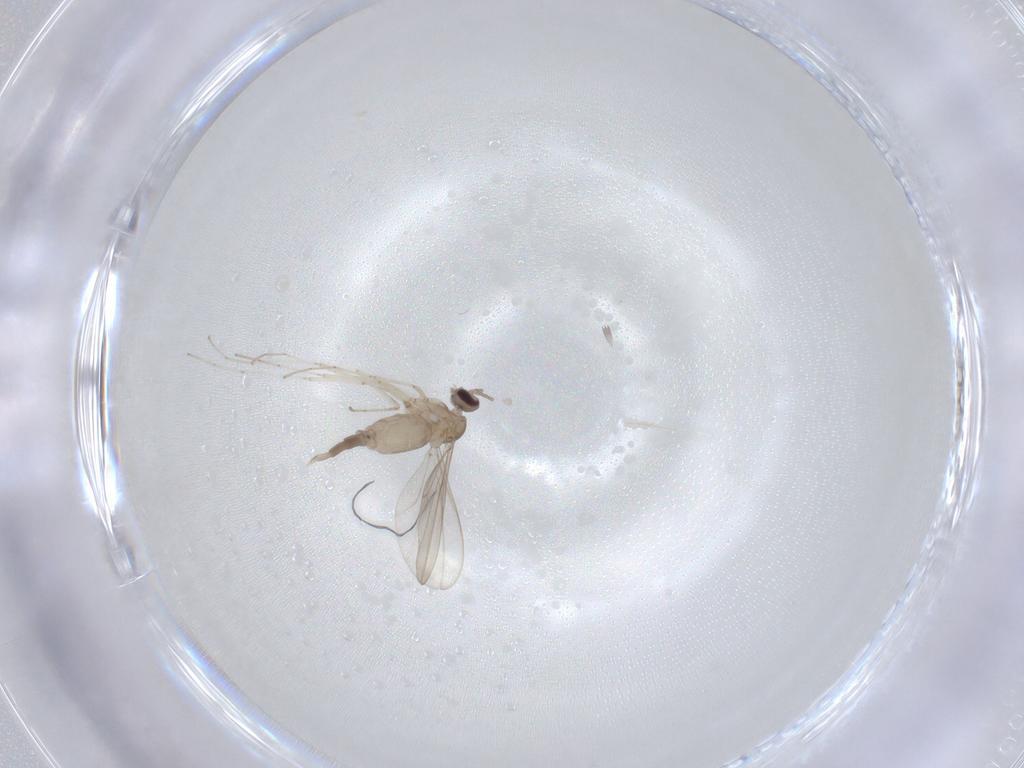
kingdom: Animalia
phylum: Arthropoda
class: Insecta
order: Diptera
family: Sarcophagidae
